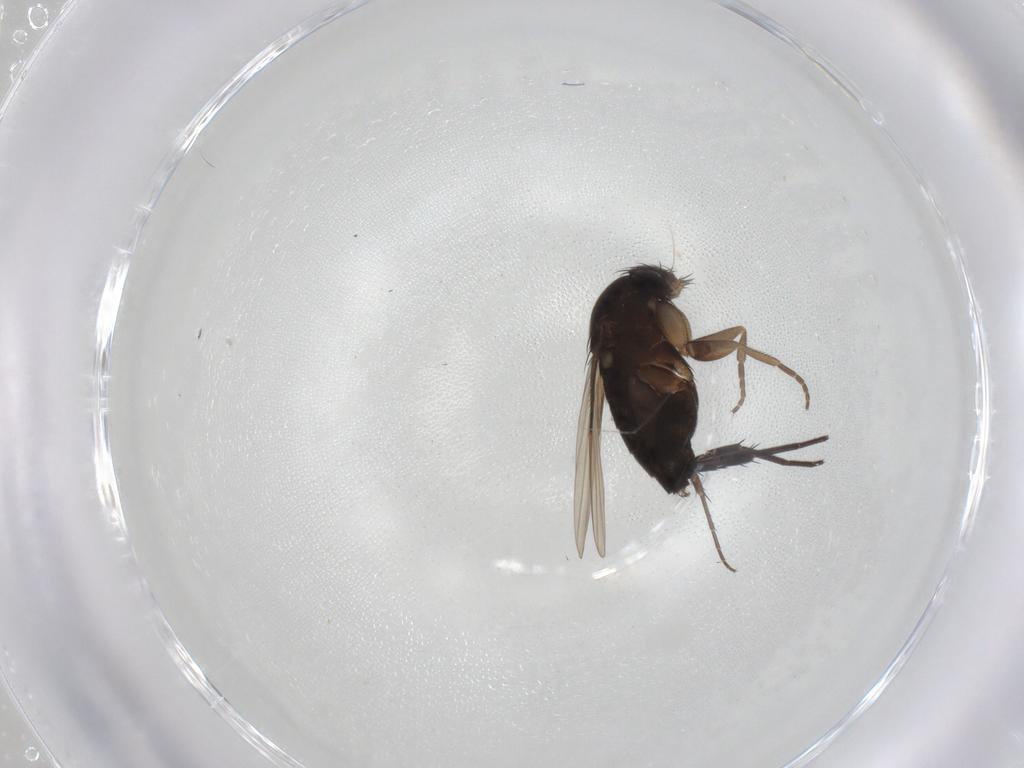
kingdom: Animalia
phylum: Arthropoda
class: Insecta
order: Diptera
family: Phoridae
